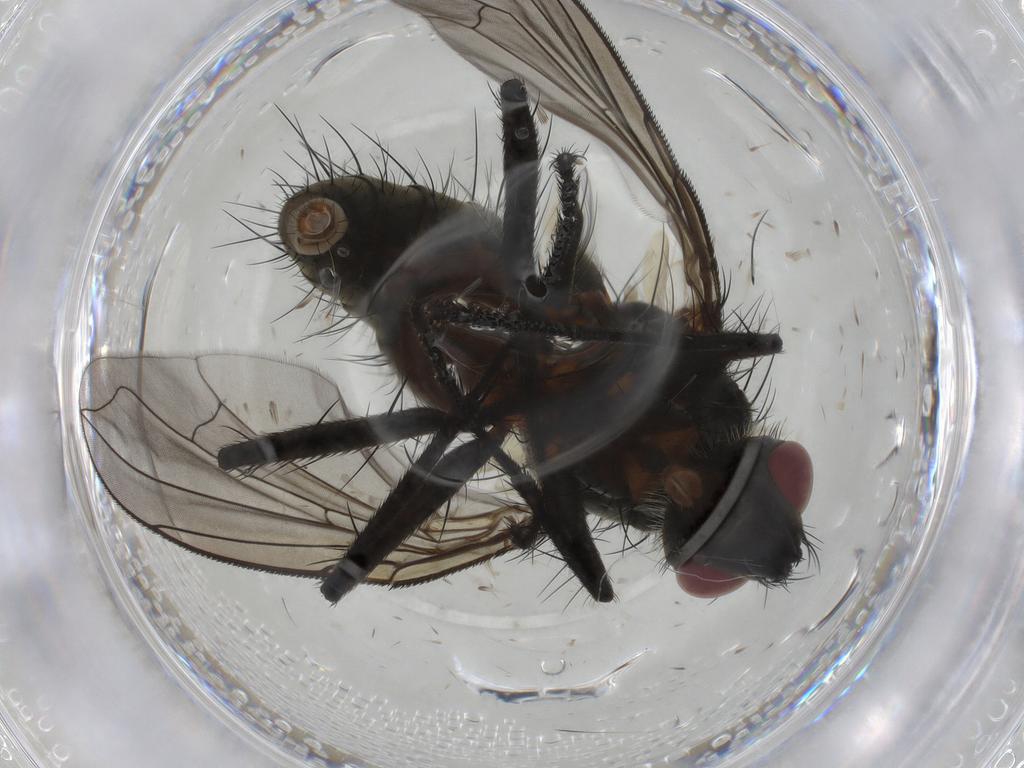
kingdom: Animalia
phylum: Arthropoda
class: Insecta
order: Diptera
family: Tachinidae
